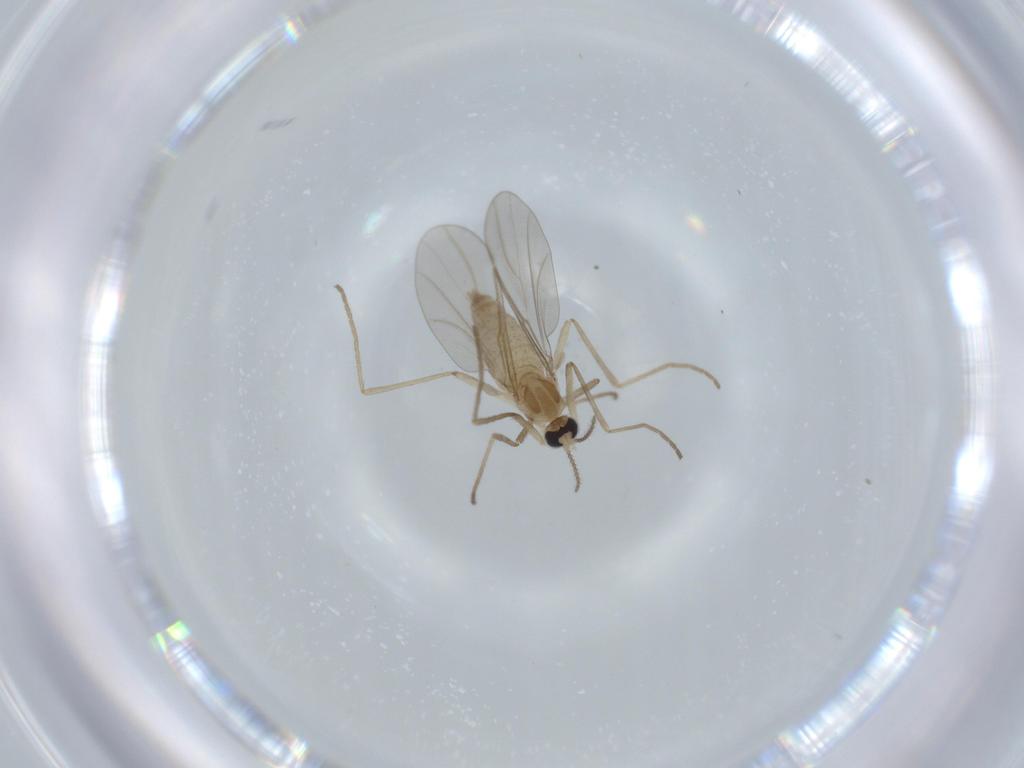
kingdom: Animalia
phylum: Arthropoda
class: Insecta
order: Diptera
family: Cecidomyiidae
